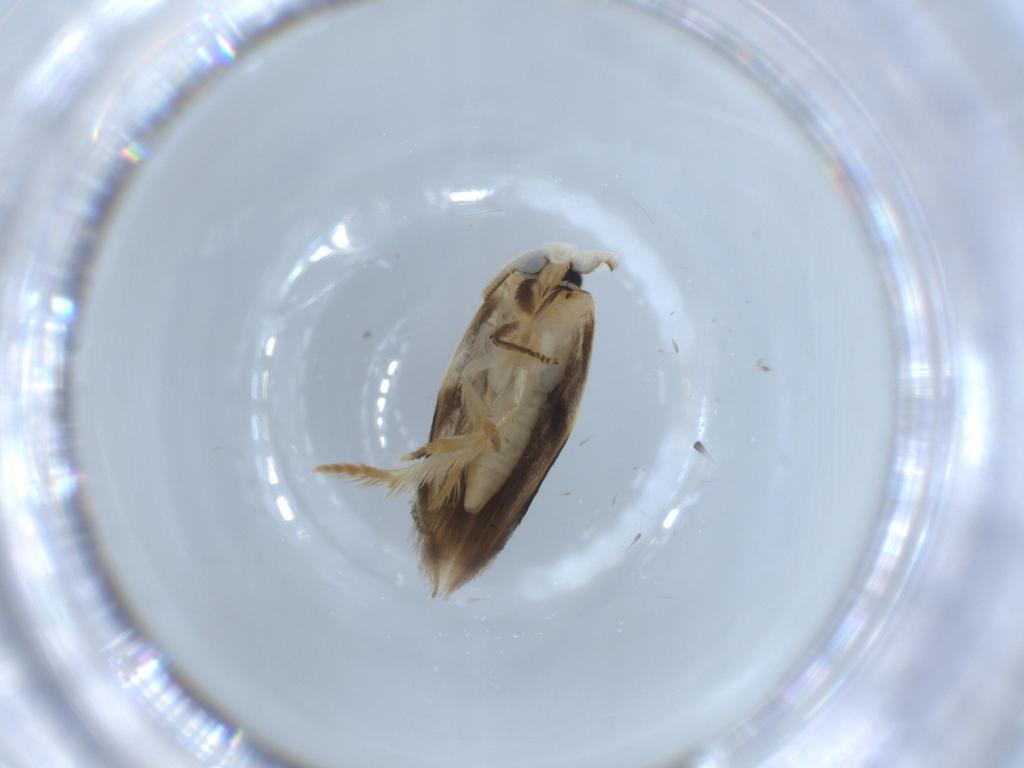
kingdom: Animalia
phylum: Arthropoda
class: Insecta
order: Lepidoptera
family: Opostegidae
